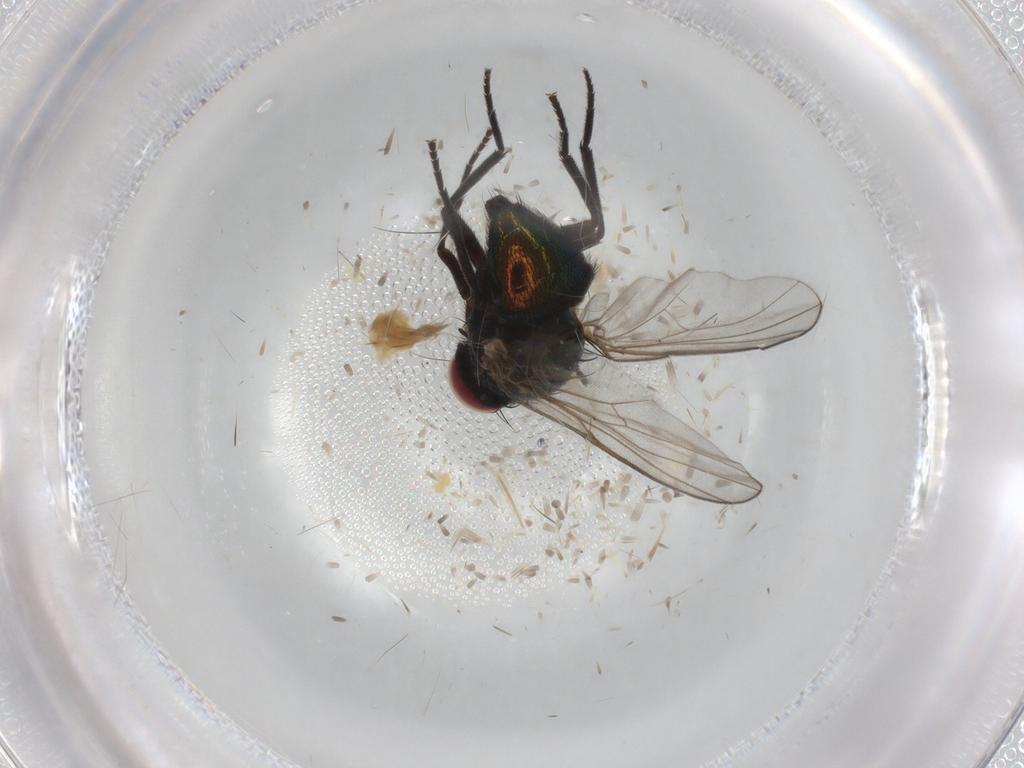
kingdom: Animalia
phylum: Arthropoda
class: Insecta
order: Diptera
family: Agromyzidae
